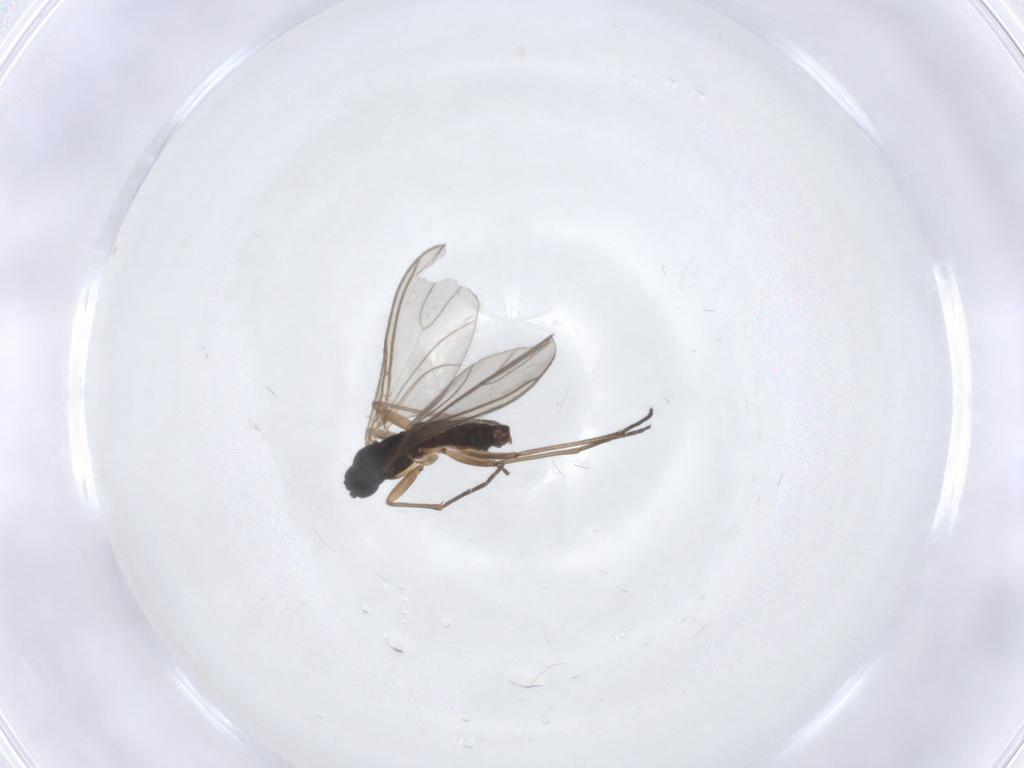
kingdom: Animalia
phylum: Arthropoda
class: Insecta
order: Diptera
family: Sciaridae
